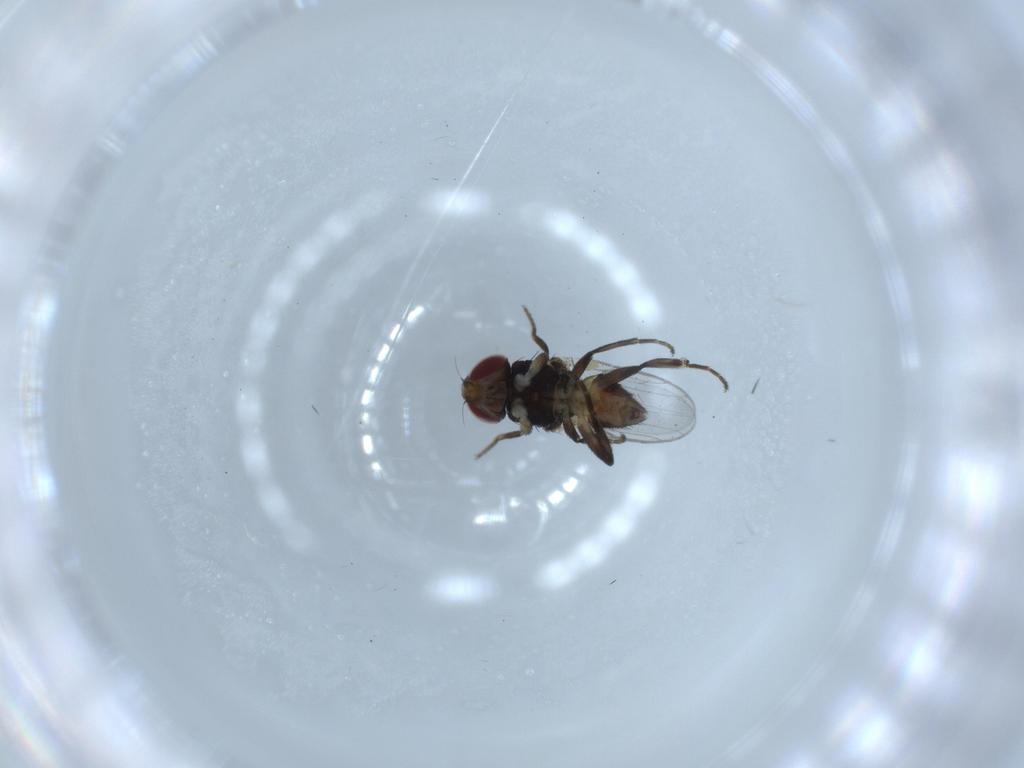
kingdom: Animalia
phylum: Arthropoda
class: Insecta
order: Diptera
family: Chloropidae
